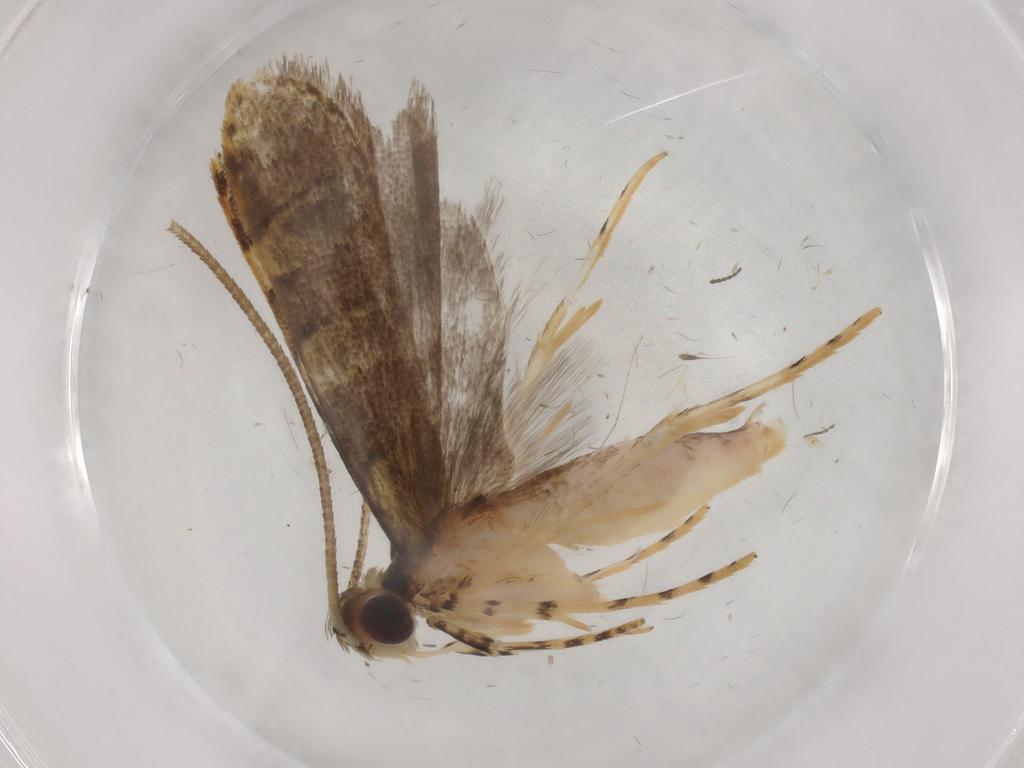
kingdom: Animalia
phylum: Arthropoda
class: Insecta
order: Lepidoptera
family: Gelechiidae
